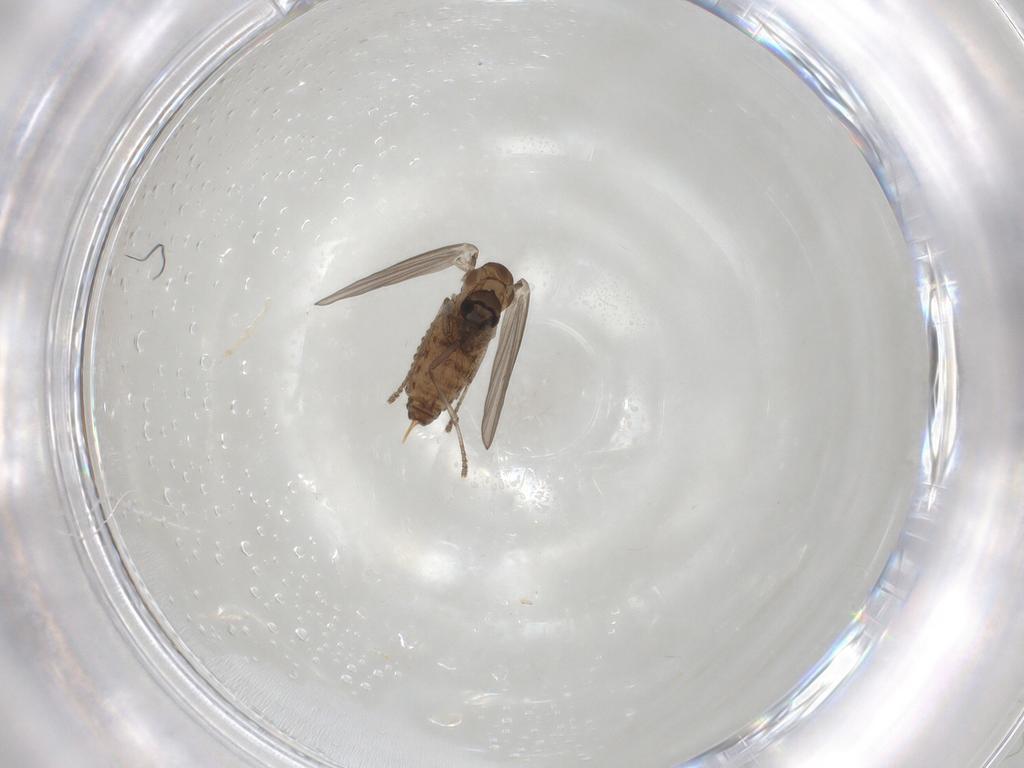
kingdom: Animalia
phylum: Arthropoda
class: Insecta
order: Diptera
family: Psychodidae
